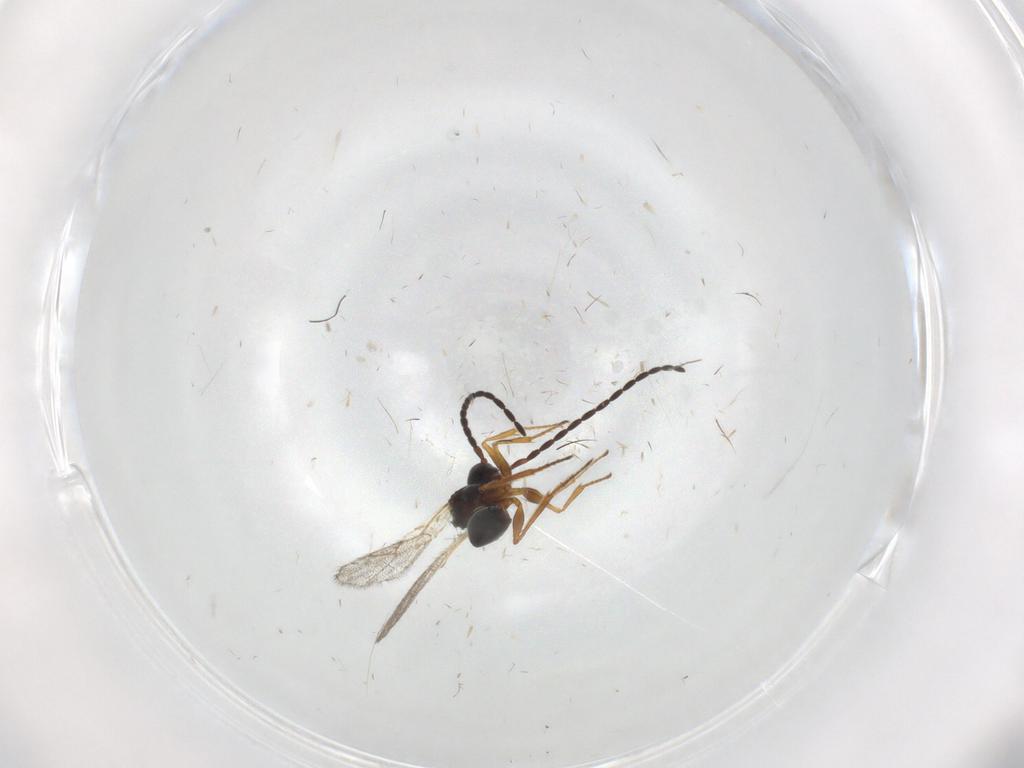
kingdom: Animalia
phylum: Arthropoda
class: Insecta
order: Hymenoptera
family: Figitidae
